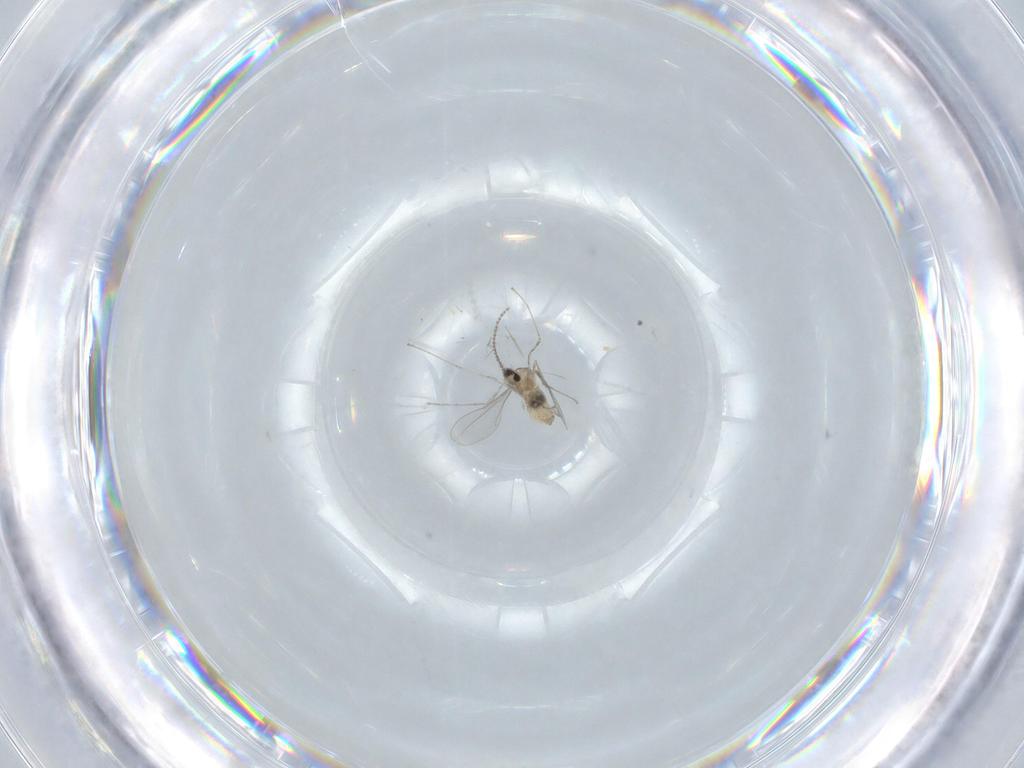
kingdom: Animalia
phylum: Arthropoda
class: Insecta
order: Diptera
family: Cecidomyiidae
